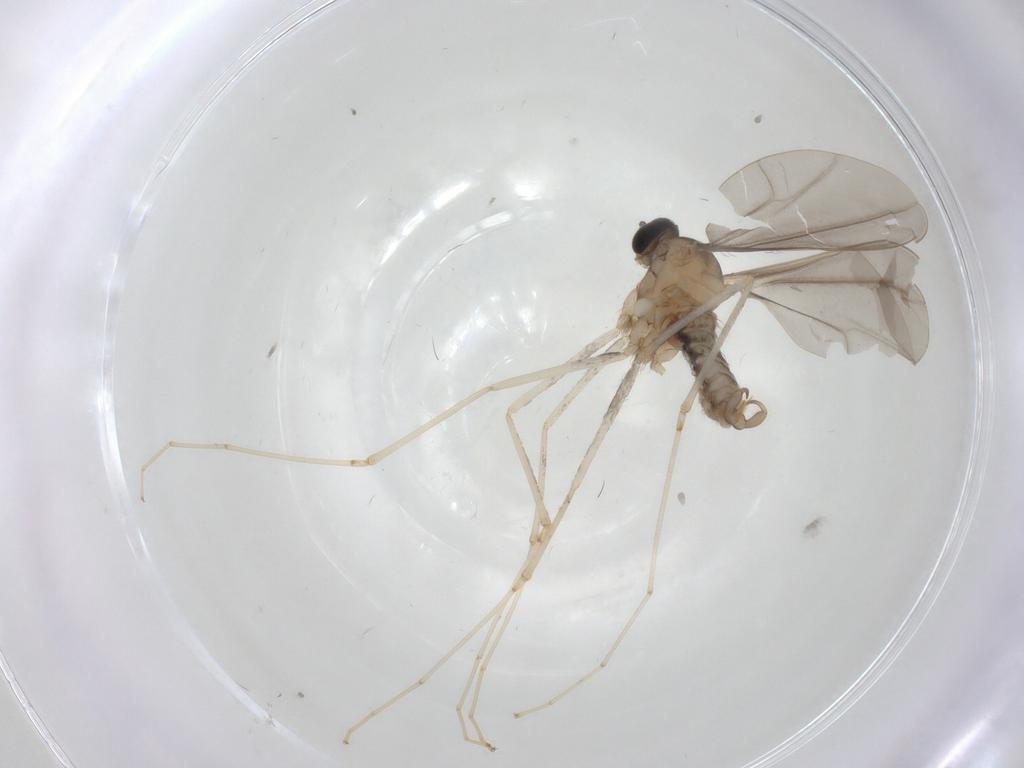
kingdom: Animalia
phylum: Arthropoda
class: Insecta
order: Diptera
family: Cecidomyiidae
